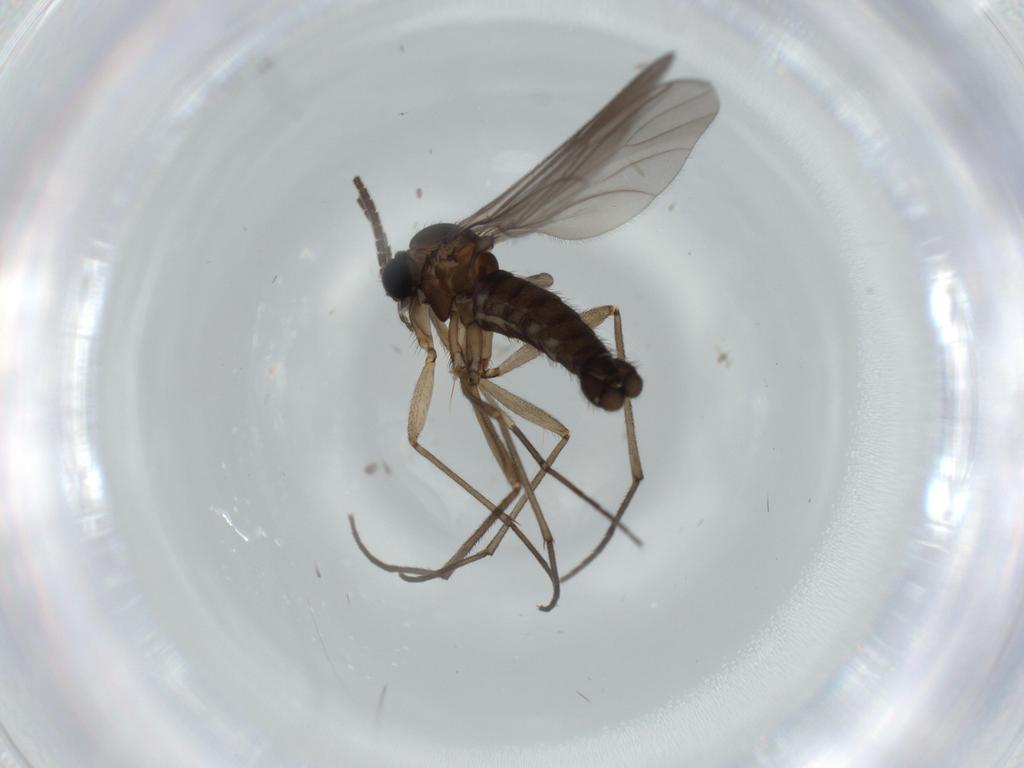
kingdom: Animalia
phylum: Arthropoda
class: Insecta
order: Diptera
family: Sciaridae
